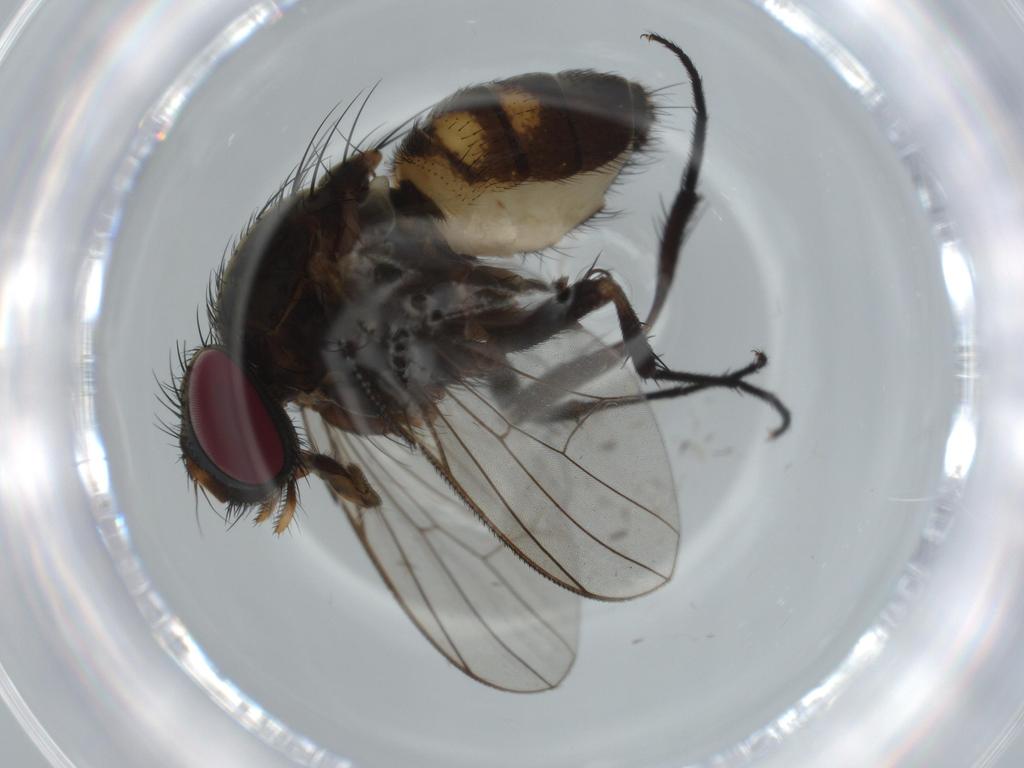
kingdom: Animalia
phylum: Arthropoda
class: Insecta
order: Diptera
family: Fannia
